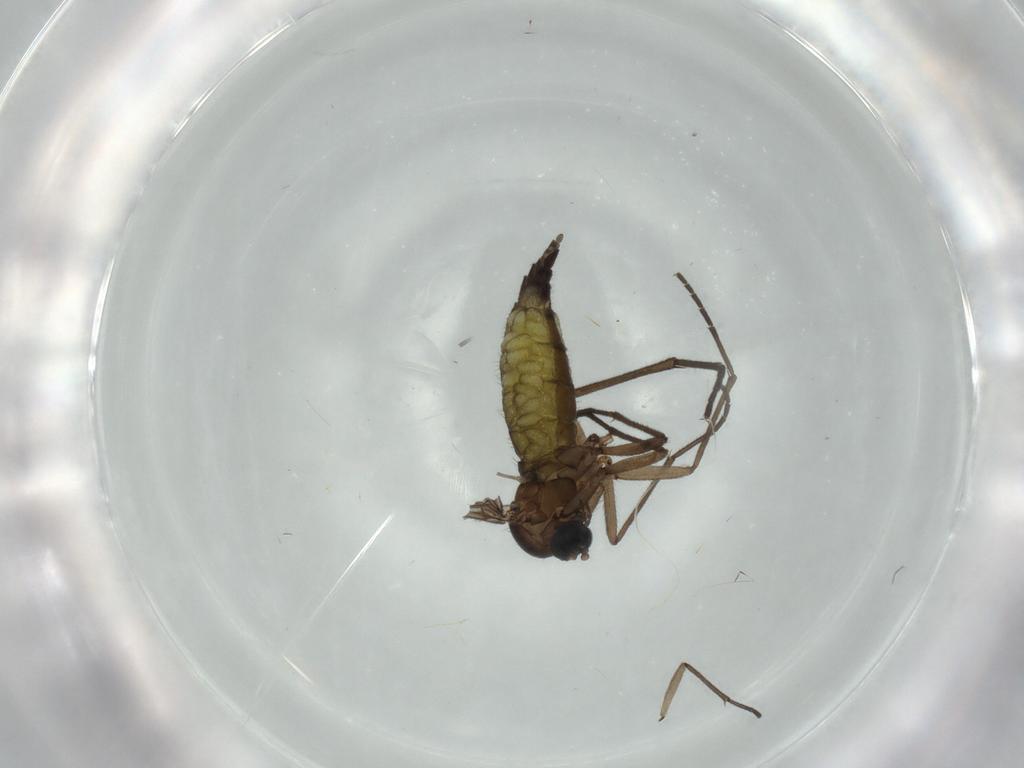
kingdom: Animalia
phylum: Arthropoda
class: Insecta
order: Diptera
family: Sciaridae
